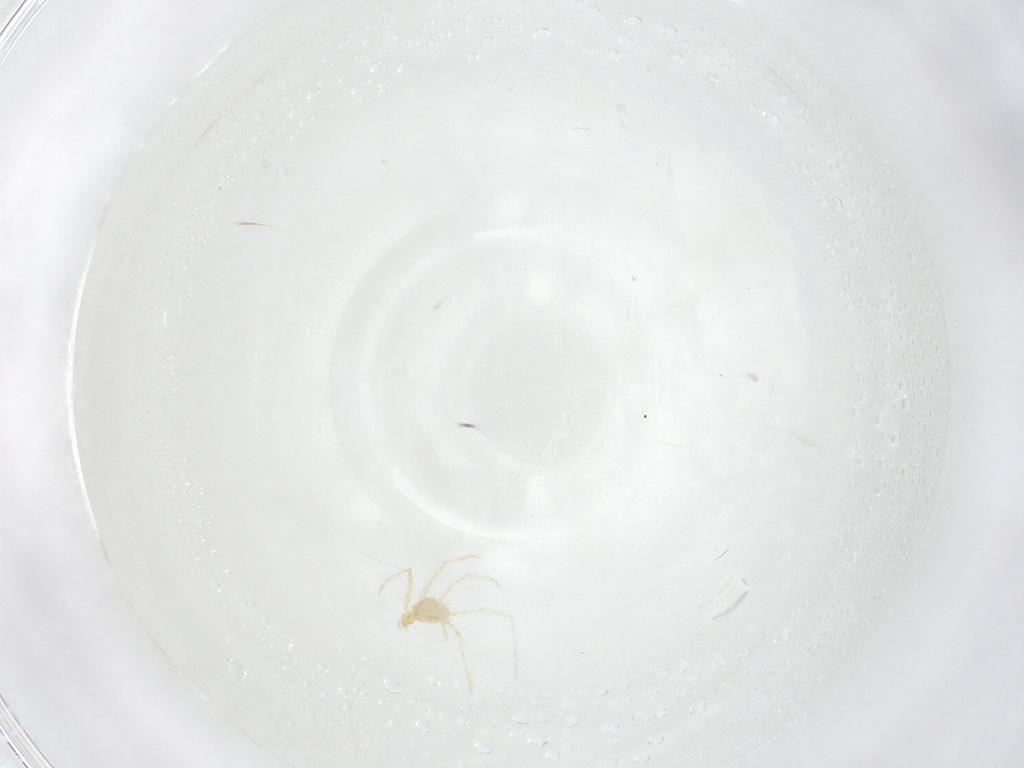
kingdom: Animalia
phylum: Arthropoda
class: Arachnida
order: Trombidiformes
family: Erythraeidae
